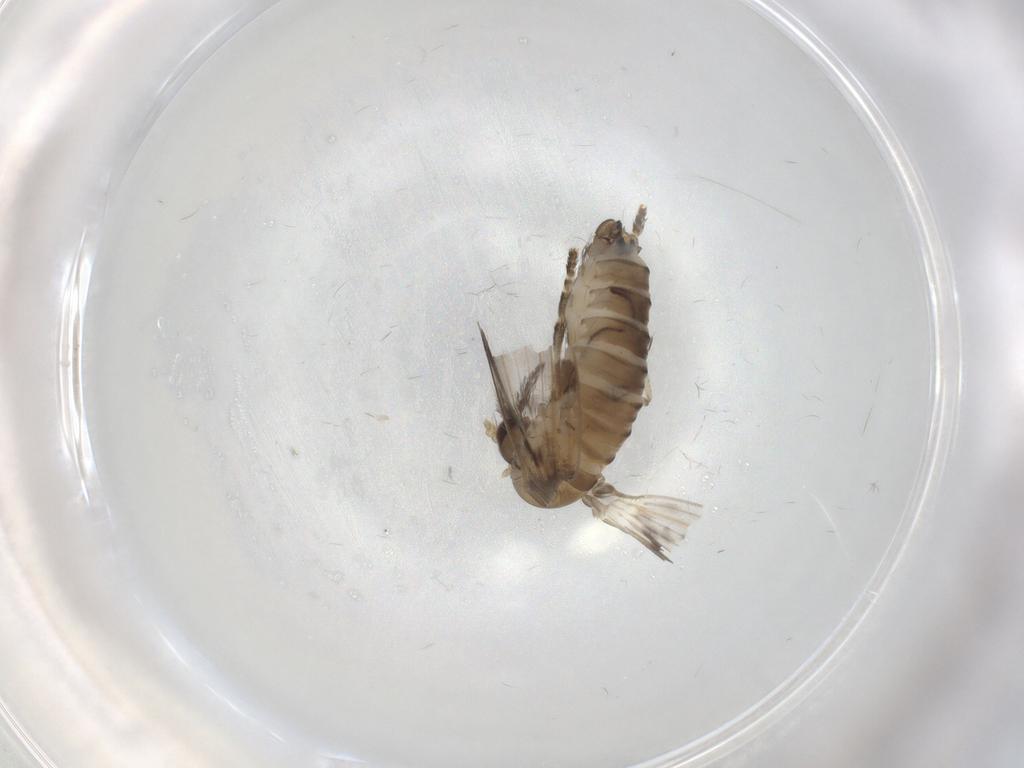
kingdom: Animalia
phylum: Arthropoda
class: Insecta
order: Diptera
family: Psychodidae
